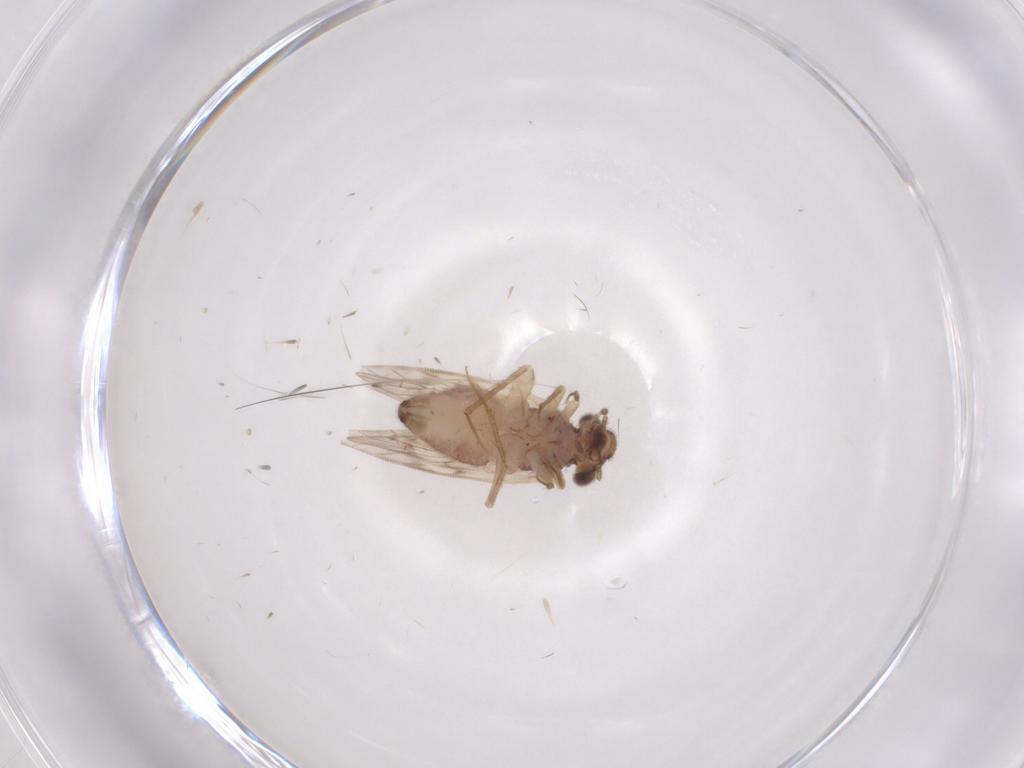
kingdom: Animalia
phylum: Arthropoda
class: Insecta
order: Psocodea
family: Lepidopsocidae
